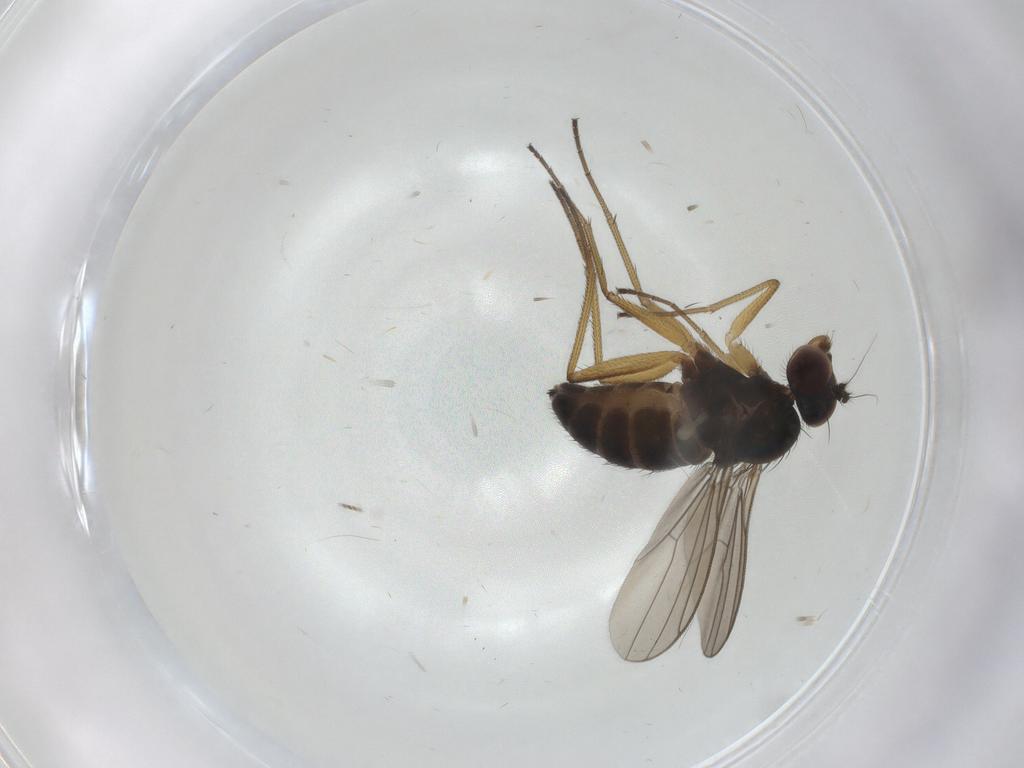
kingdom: Animalia
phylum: Arthropoda
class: Insecta
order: Diptera
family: Dolichopodidae
